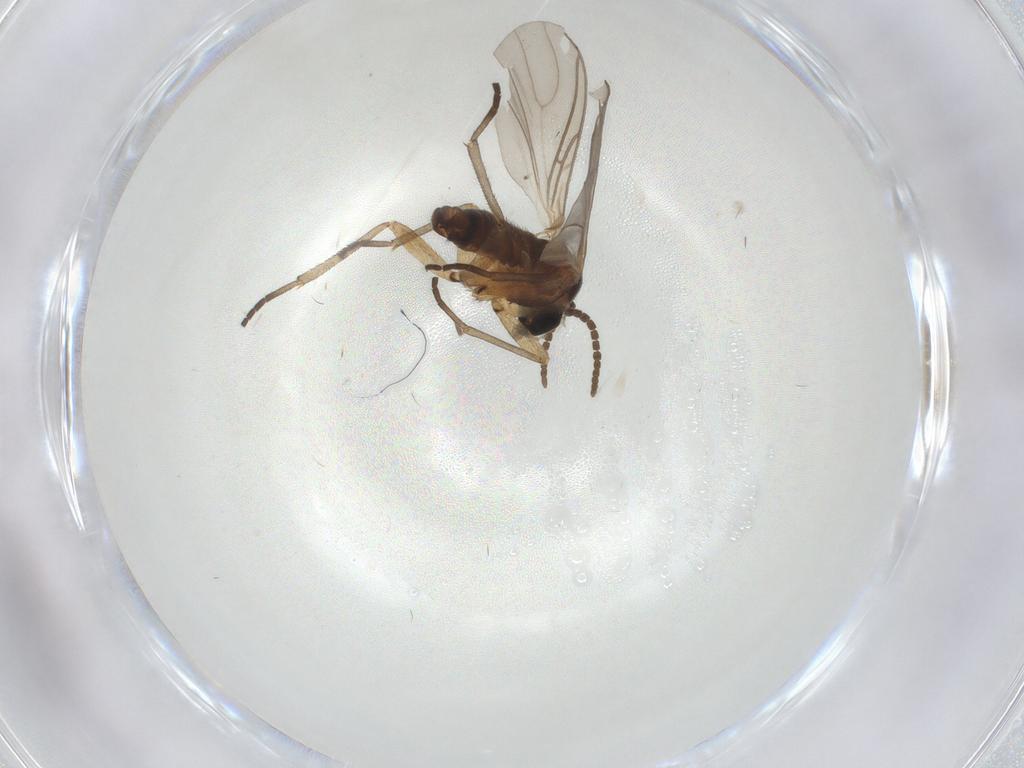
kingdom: Animalia
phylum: Arthropoda
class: Insecta
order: Diptera
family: Sciaridae
